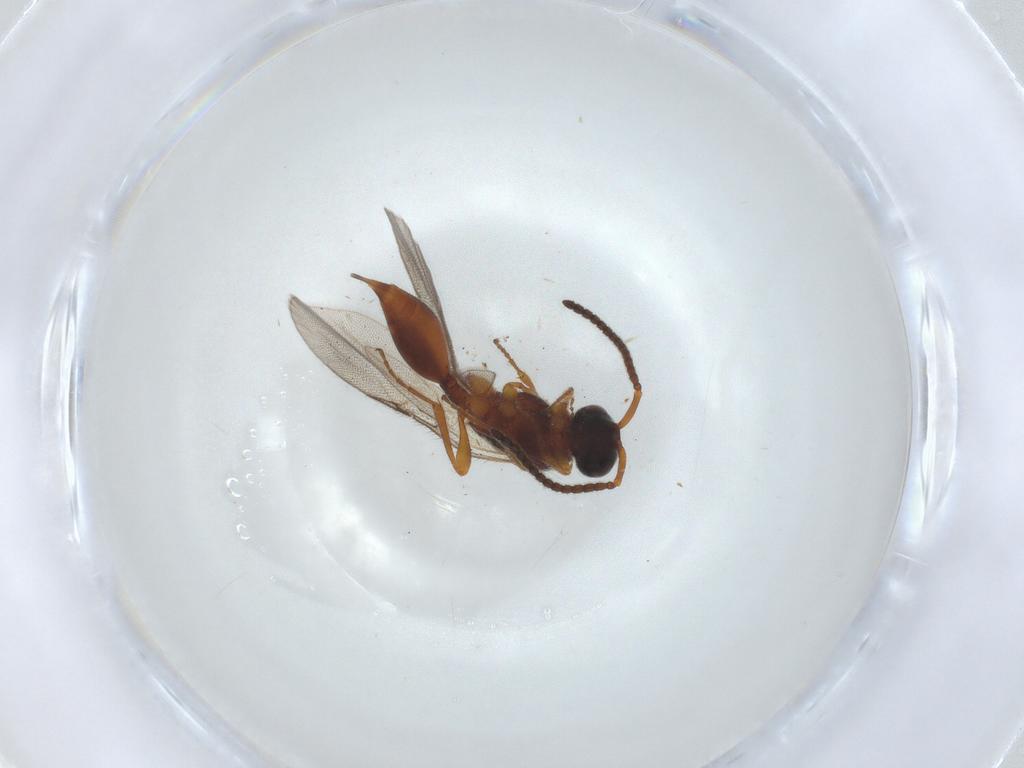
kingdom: Animalia
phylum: Arthropoda
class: Insecta
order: Hymenoptera
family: Diapriidae
